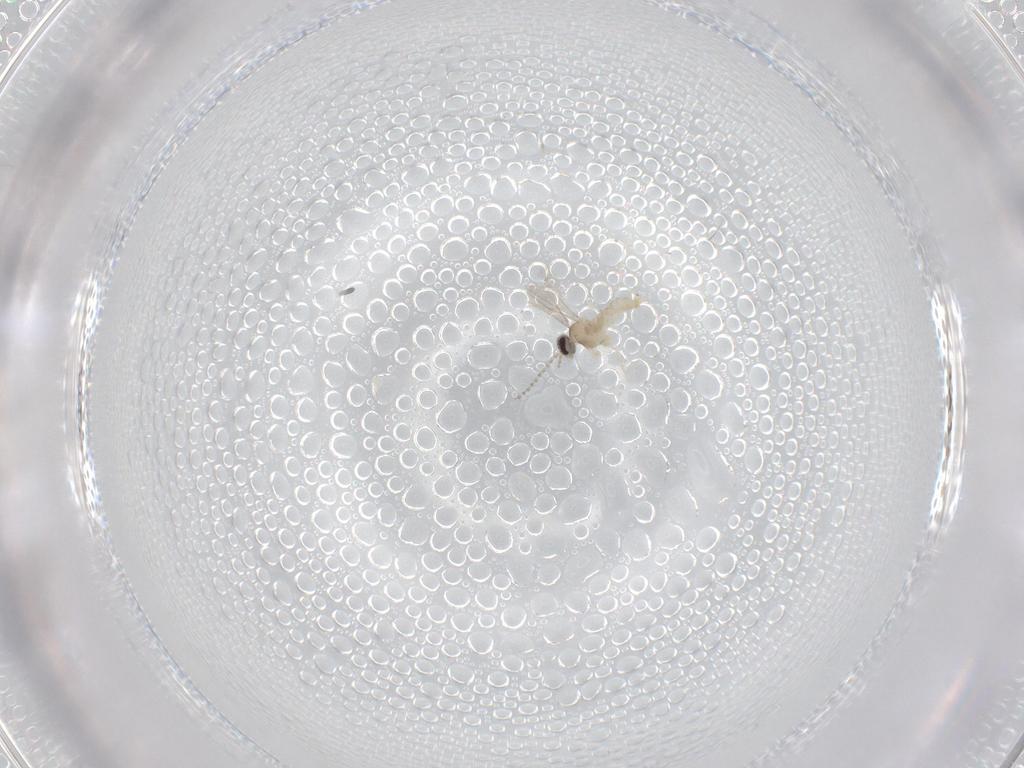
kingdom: Animalia
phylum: Arthropoda
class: Insecta
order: Diptera
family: Cecidomyiidae
